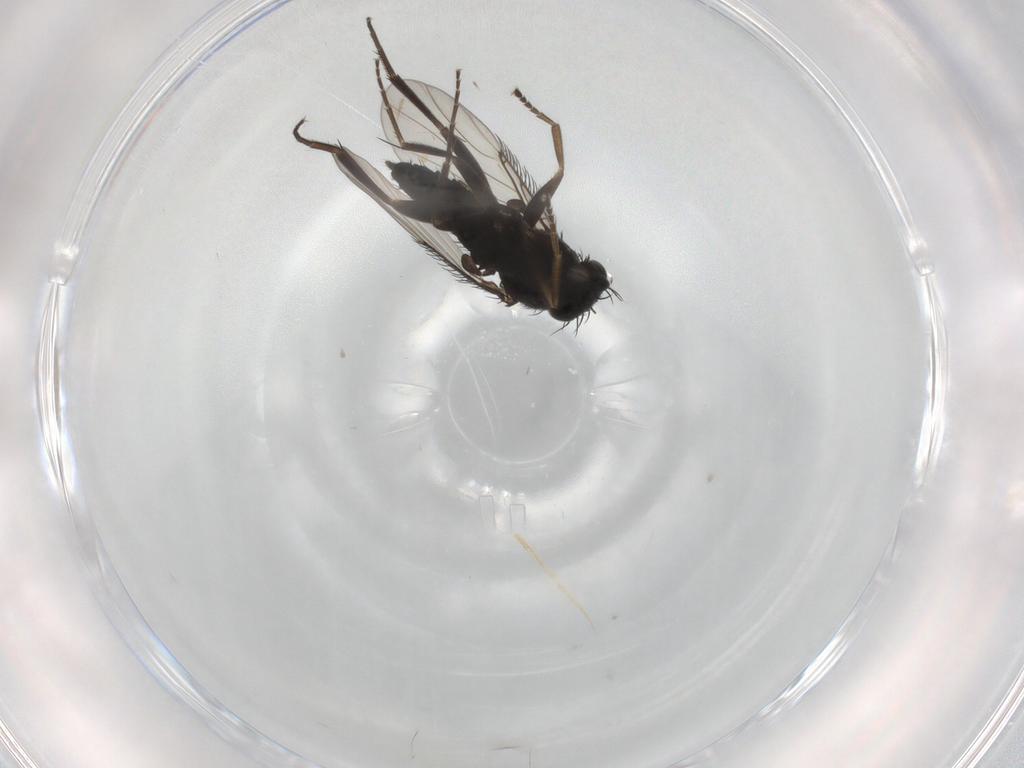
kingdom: Animalia
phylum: Arthropoda
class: Insecta
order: Diptera
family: Phoridae
